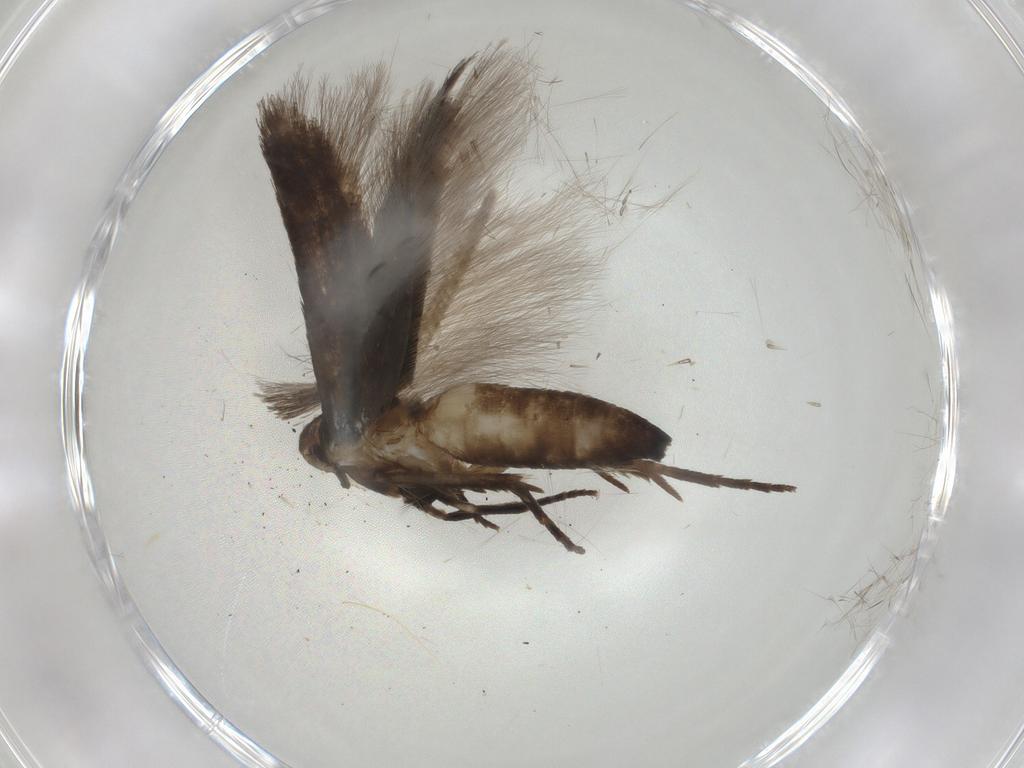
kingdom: Animalia
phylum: Arthropoda
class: Insecta
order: Lepidoptera
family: Cosmopterigidae
